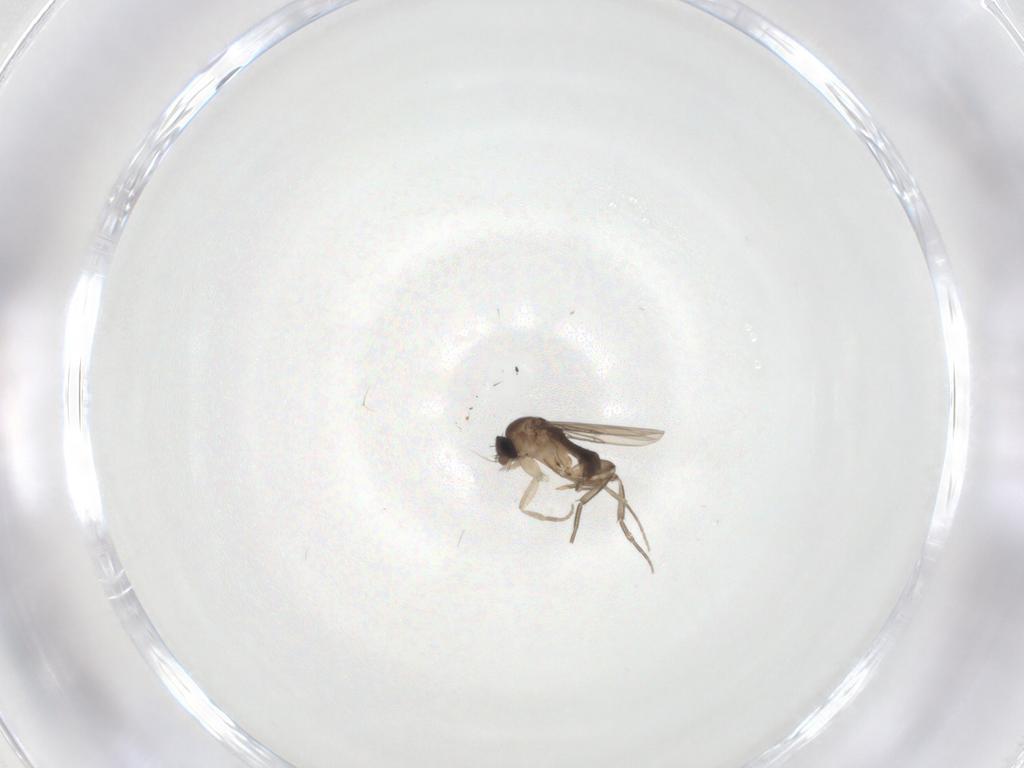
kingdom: Animalia
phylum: Arthropoda
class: Insecta
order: Diptera
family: Phoridae
